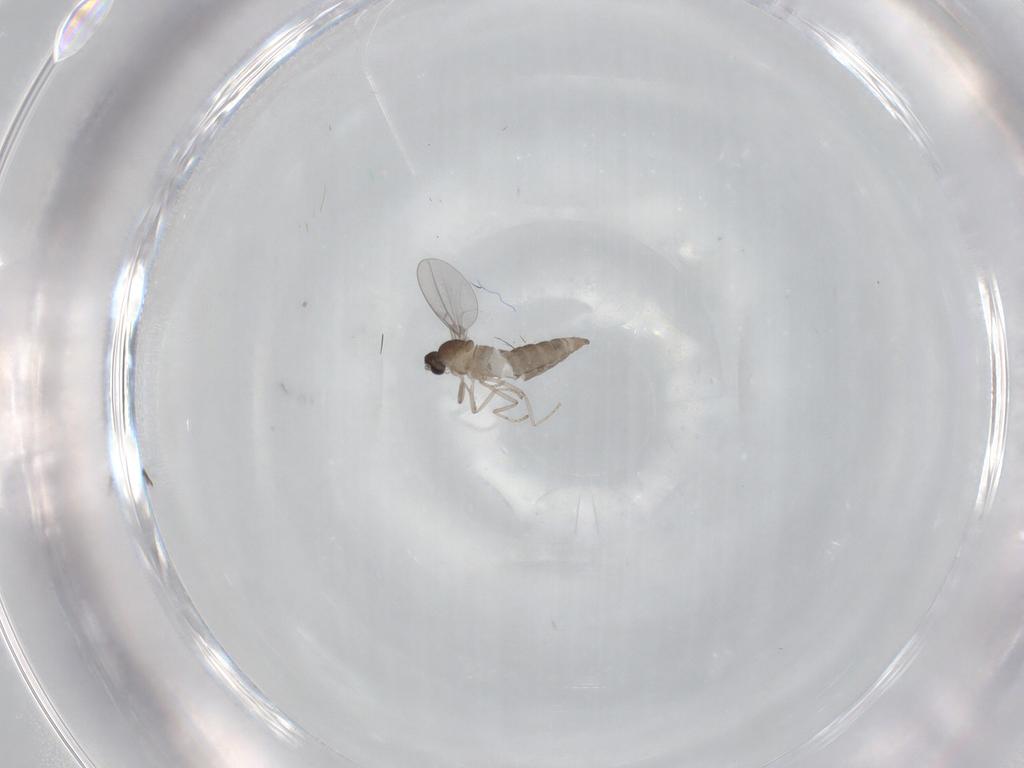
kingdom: Animalia
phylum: Arthropoda
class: Insecta
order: Diptera
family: Cecidomyiidae
